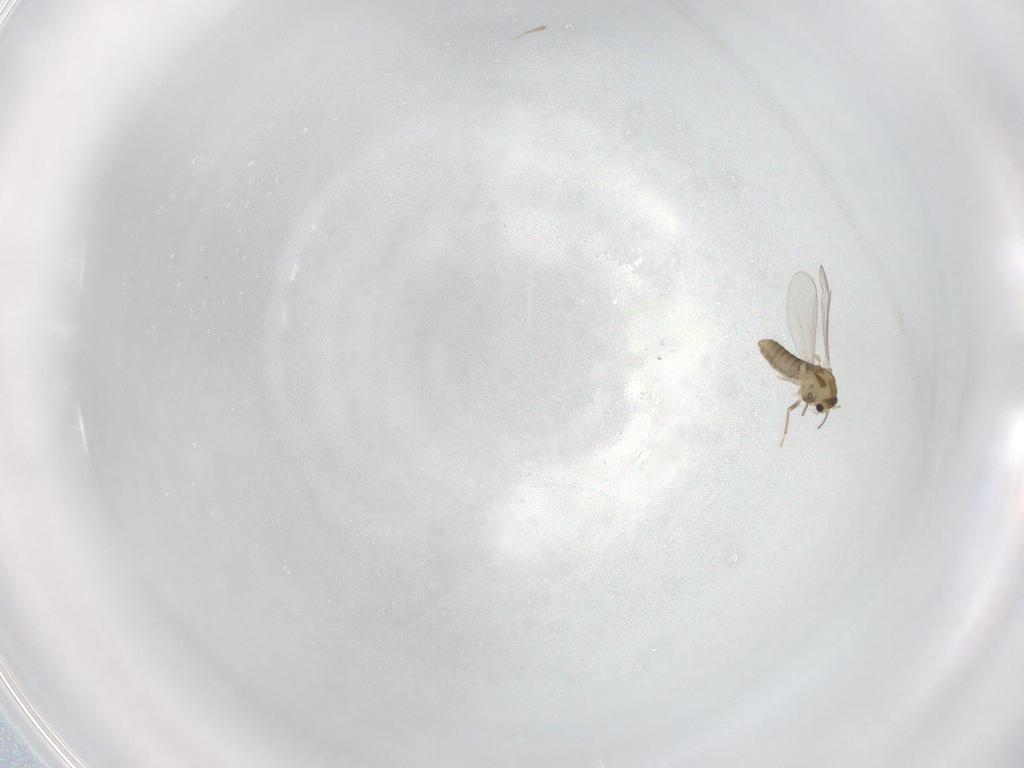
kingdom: Animalia
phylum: Arthropoda
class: Insecta
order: Diptera
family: Chironomidae
